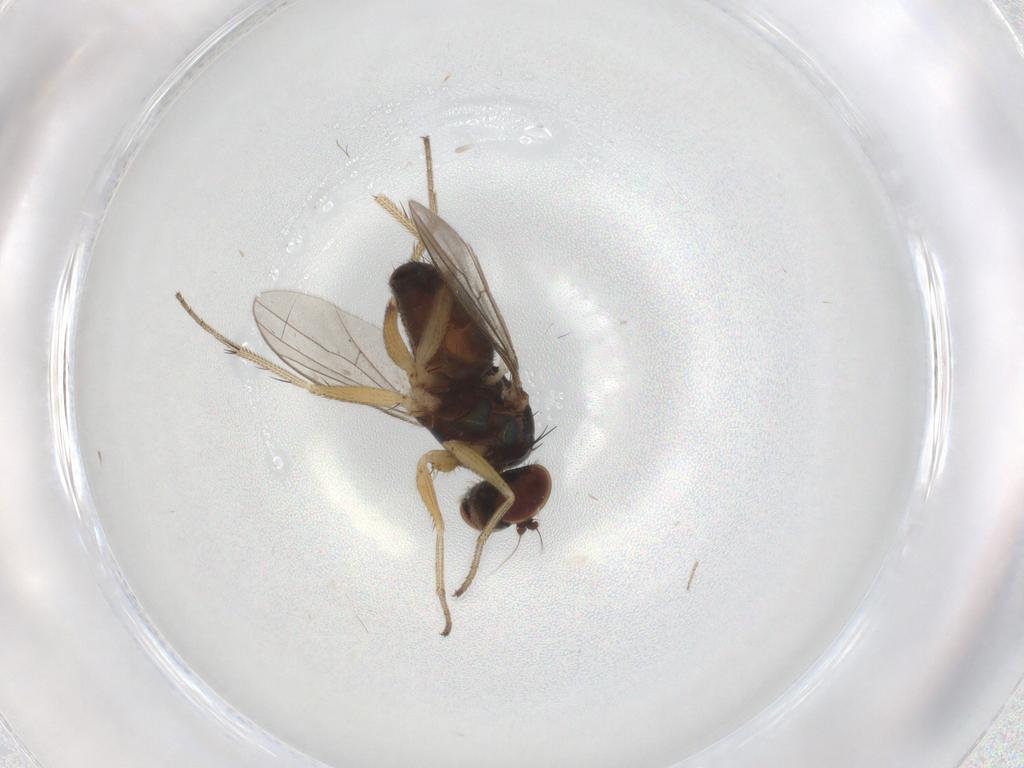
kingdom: Animalia
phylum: Arthropoda
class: Insecta
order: Diptera
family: Dolichopodidae
